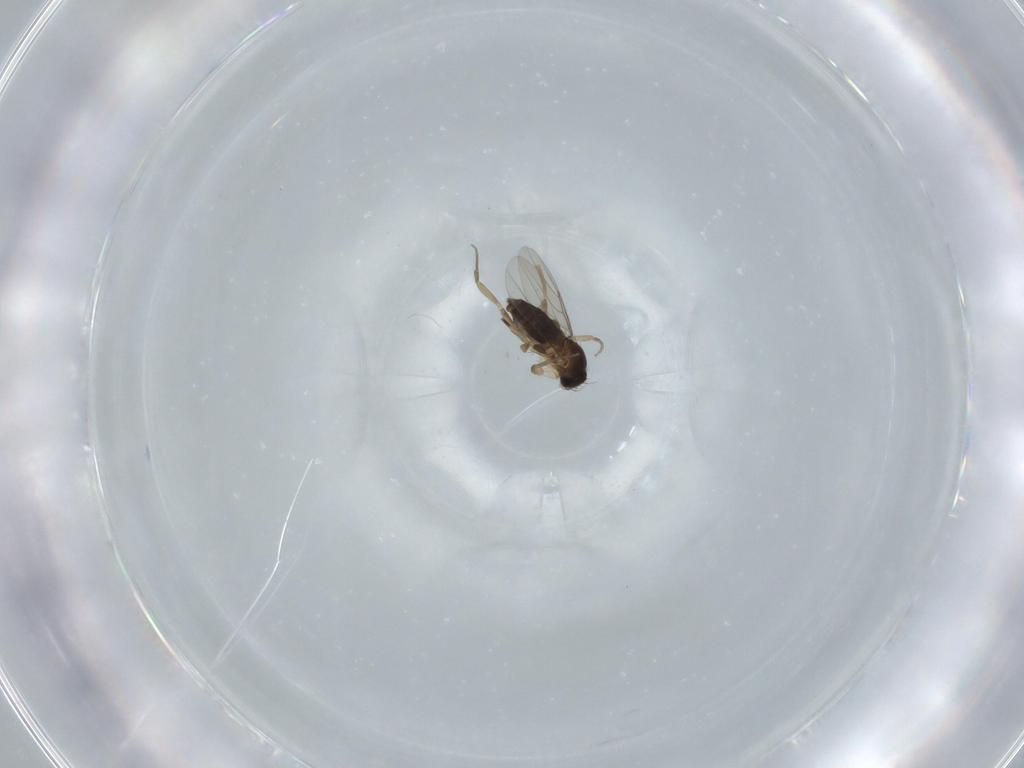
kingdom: Animalia
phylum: Arthropoda
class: Insecta
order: Diptera
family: Phoridae
